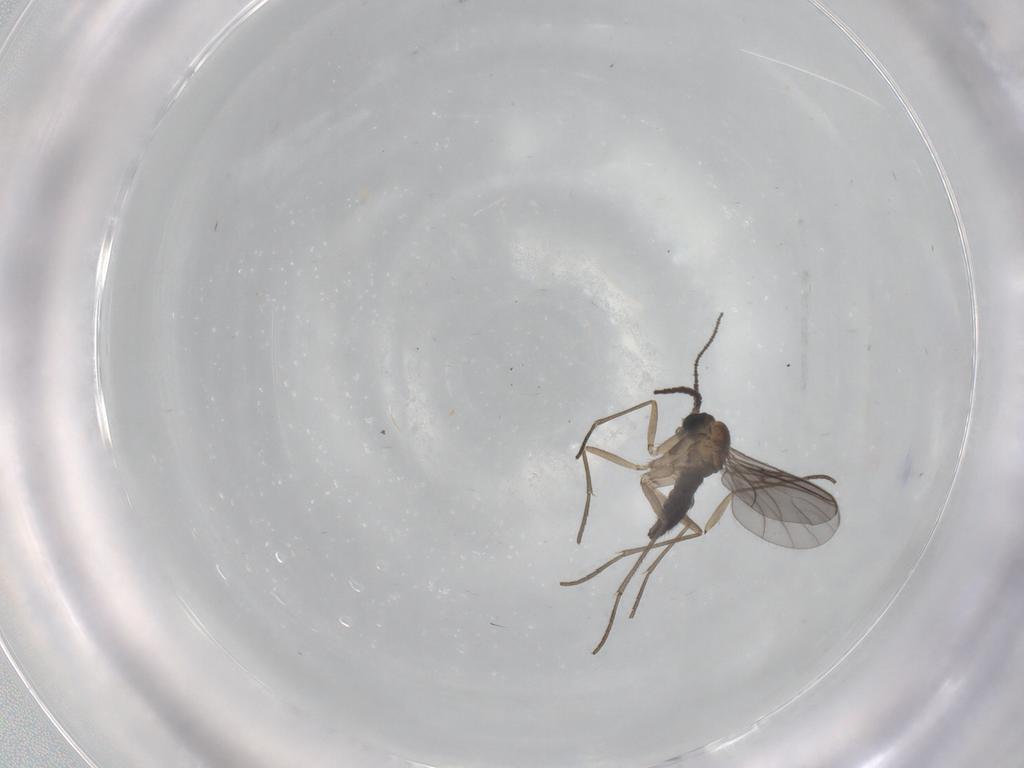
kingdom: Animalia
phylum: Arthropoda
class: Insecta
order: Diptera
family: Sciaridae
